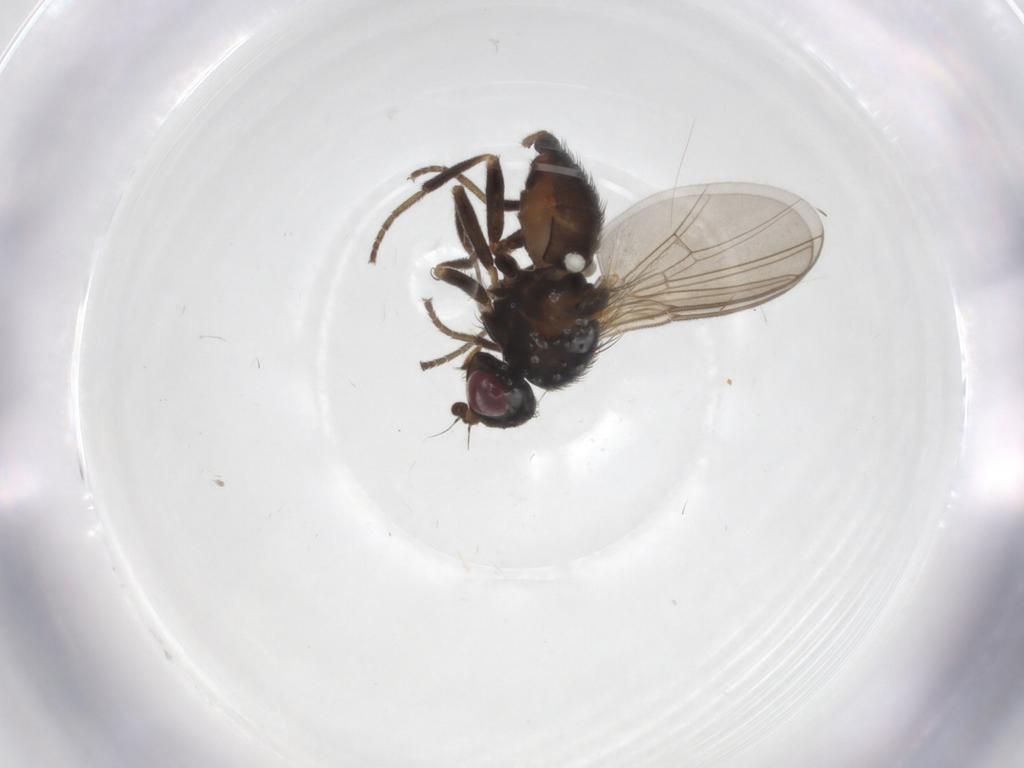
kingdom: Animalia
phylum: Arthropoda
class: Insecta
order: Diptera
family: Agromyzidae
